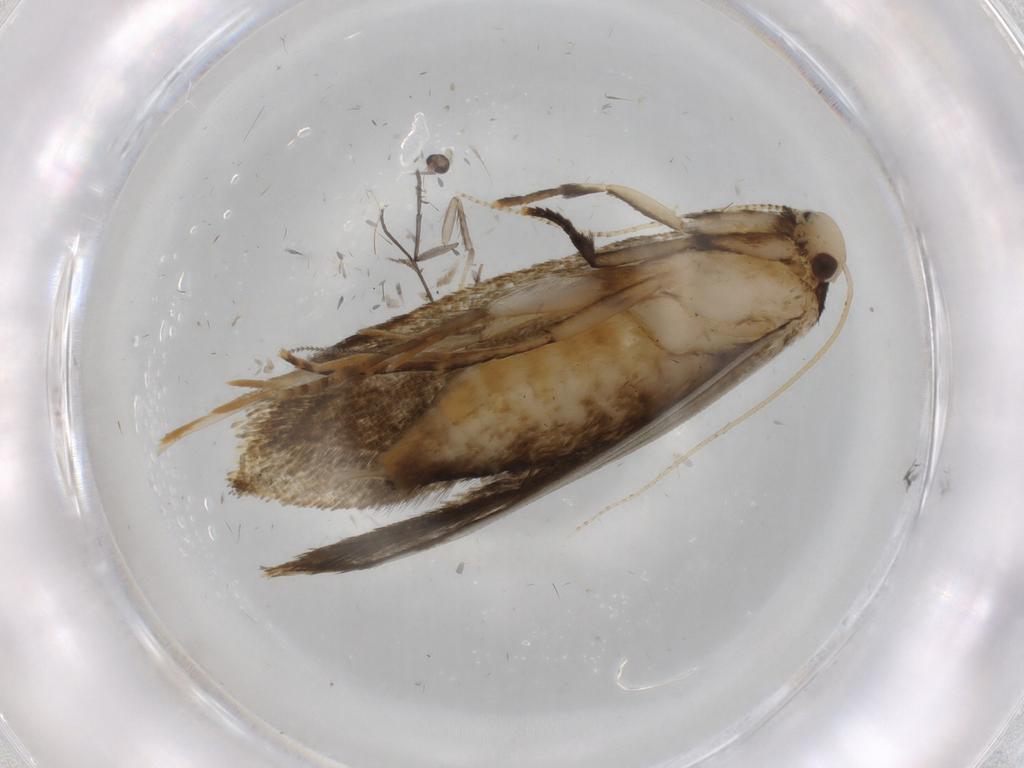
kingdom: Animalia
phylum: Arthropoda
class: Insecta
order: Lepidoptera
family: Pieridae
